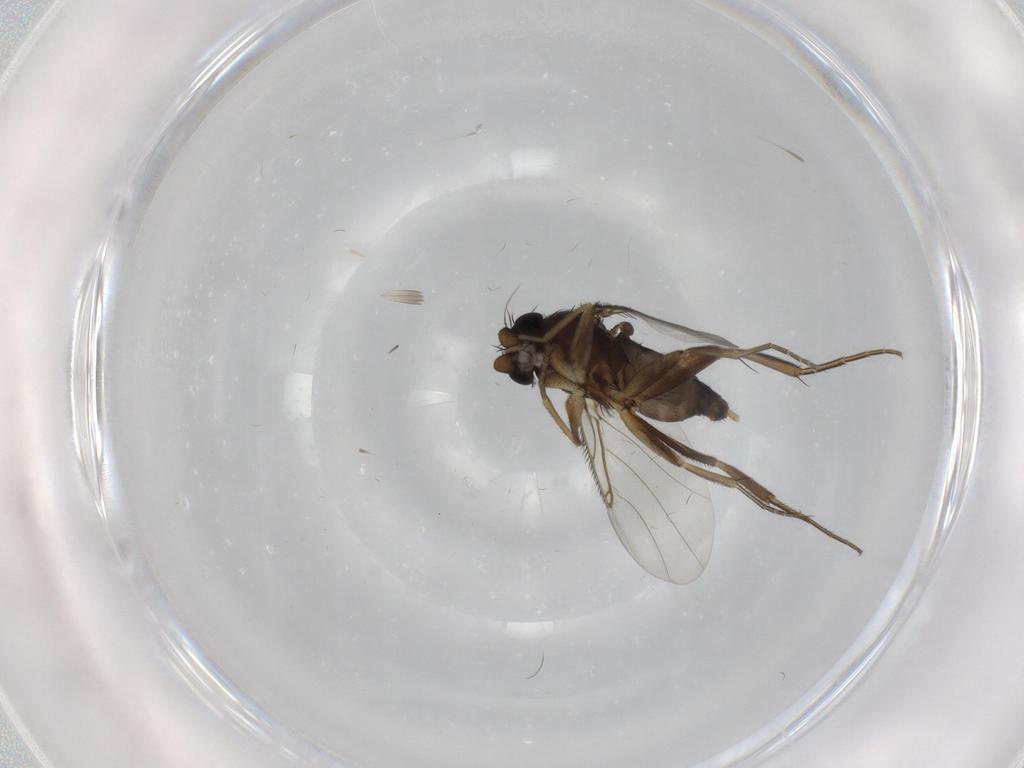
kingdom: Animalia
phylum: Arthropoda
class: Insecta
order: Diptera
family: Phoridae
